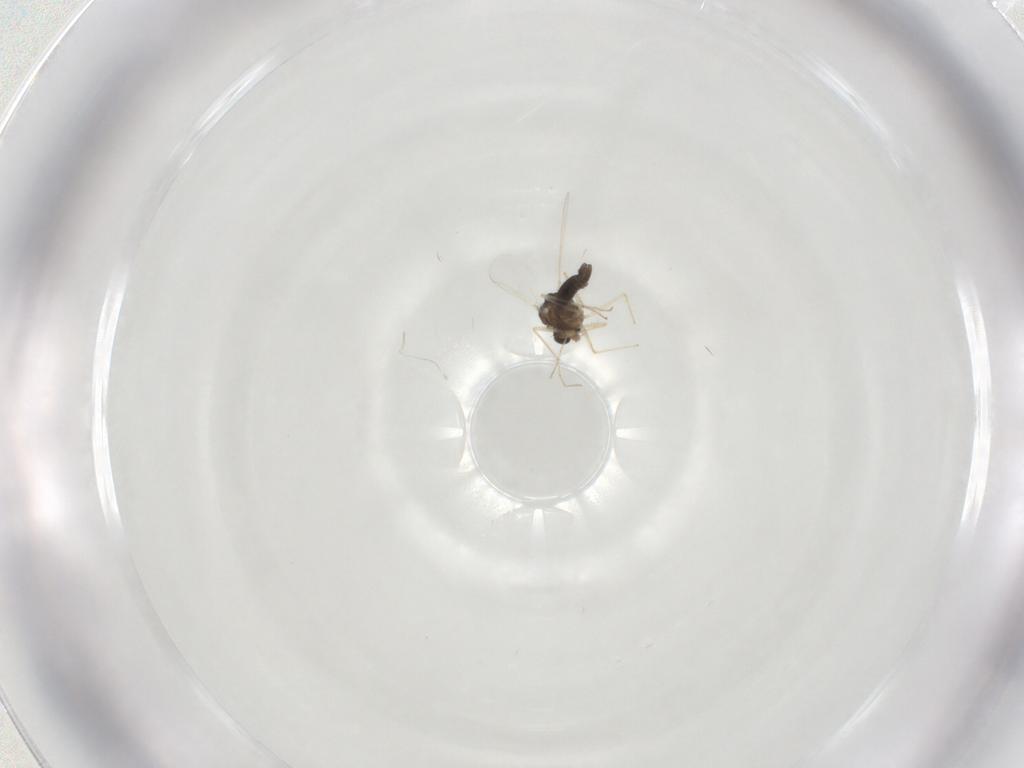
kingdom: Animalia
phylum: Arthropoda
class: Insecta
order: Diptera
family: Chironomidae
